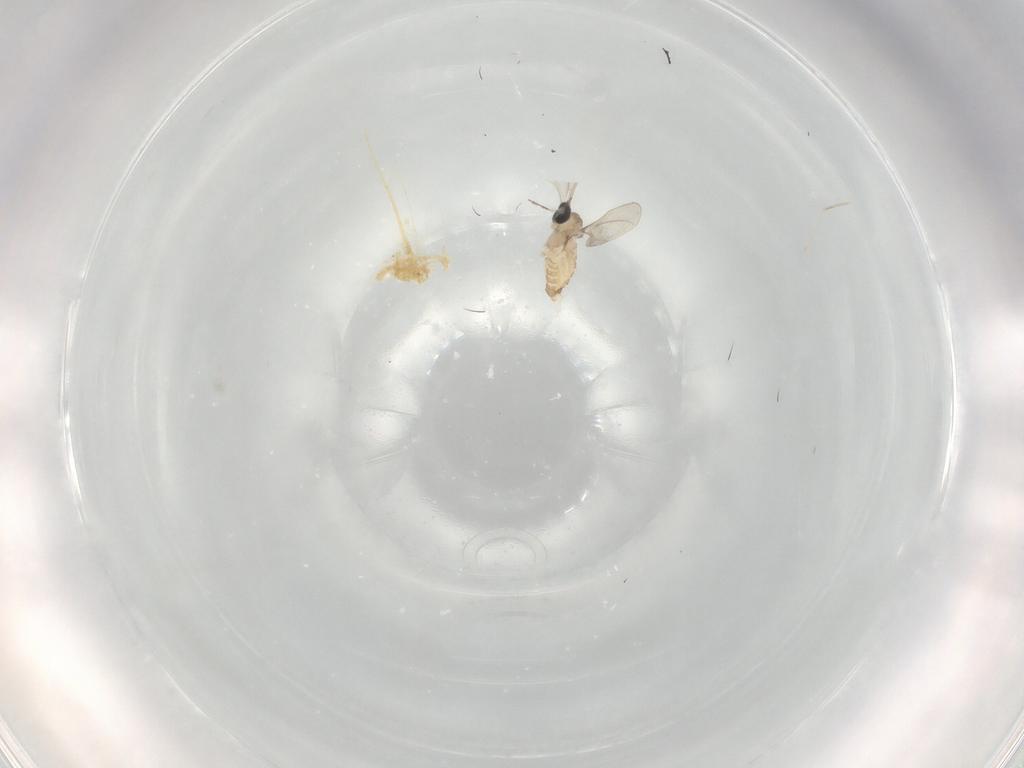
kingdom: Animalia
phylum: Arthropoda
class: Insecta
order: Diptera
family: Cecidomyiidae
